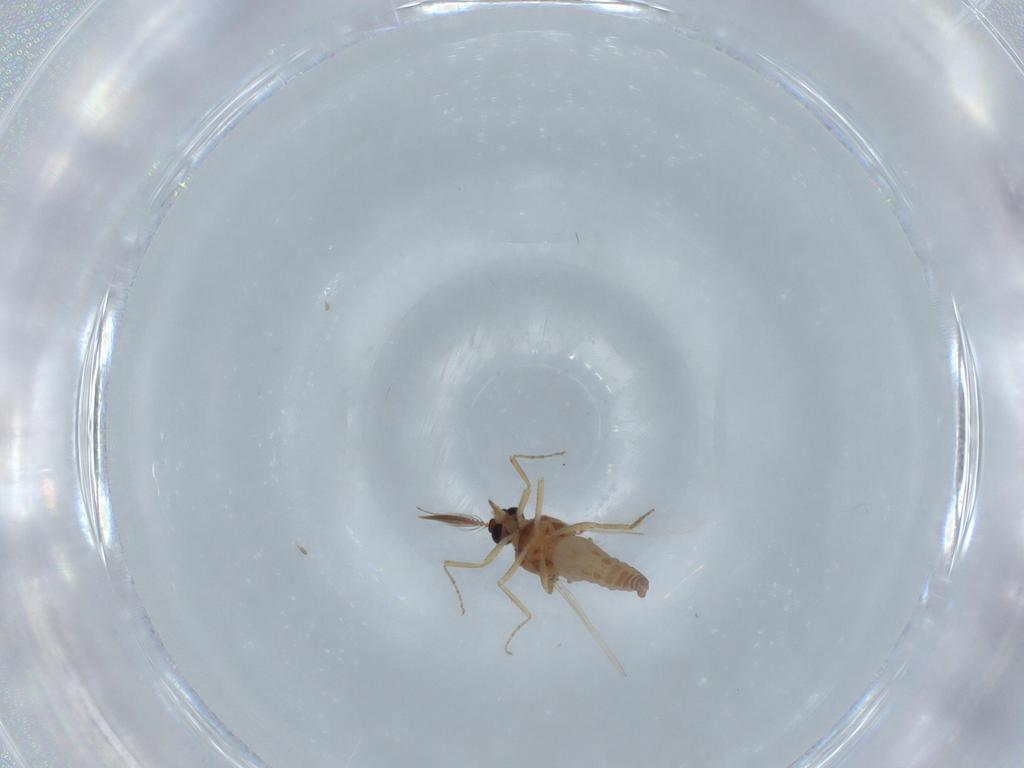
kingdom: Animalia
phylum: Arthropoda
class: Insecta
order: Diptera
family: Ceratopogonidae
